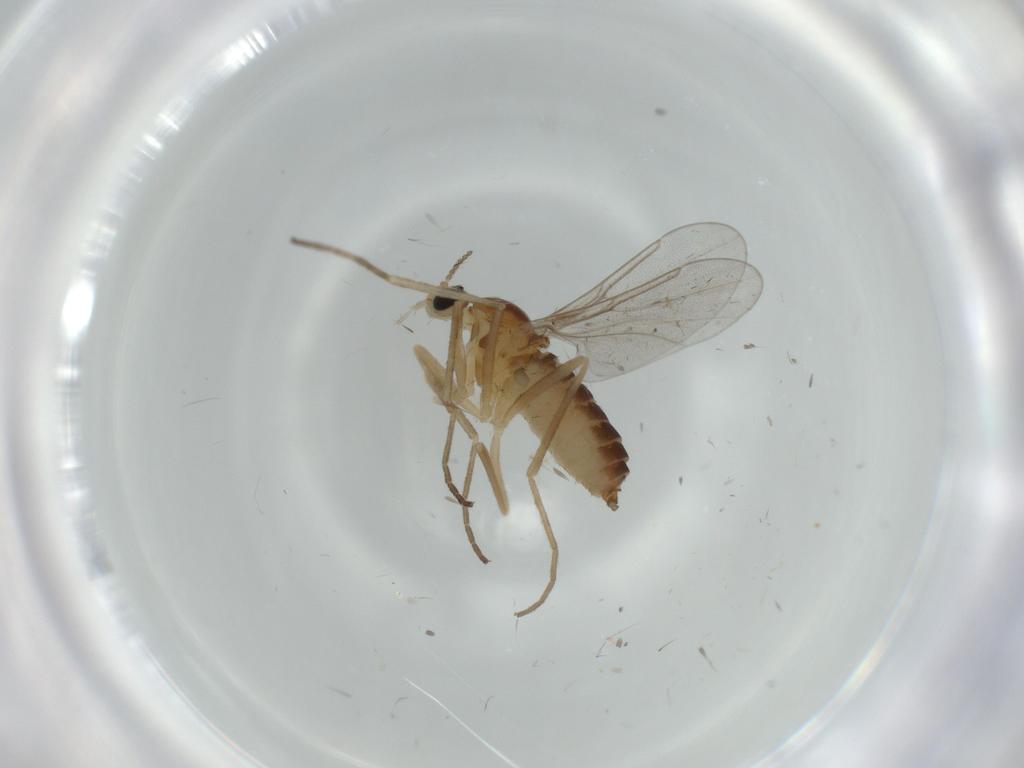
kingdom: Animalia
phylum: Arthropoda
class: Insecta
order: Diptera
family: Cecidomyiidae
